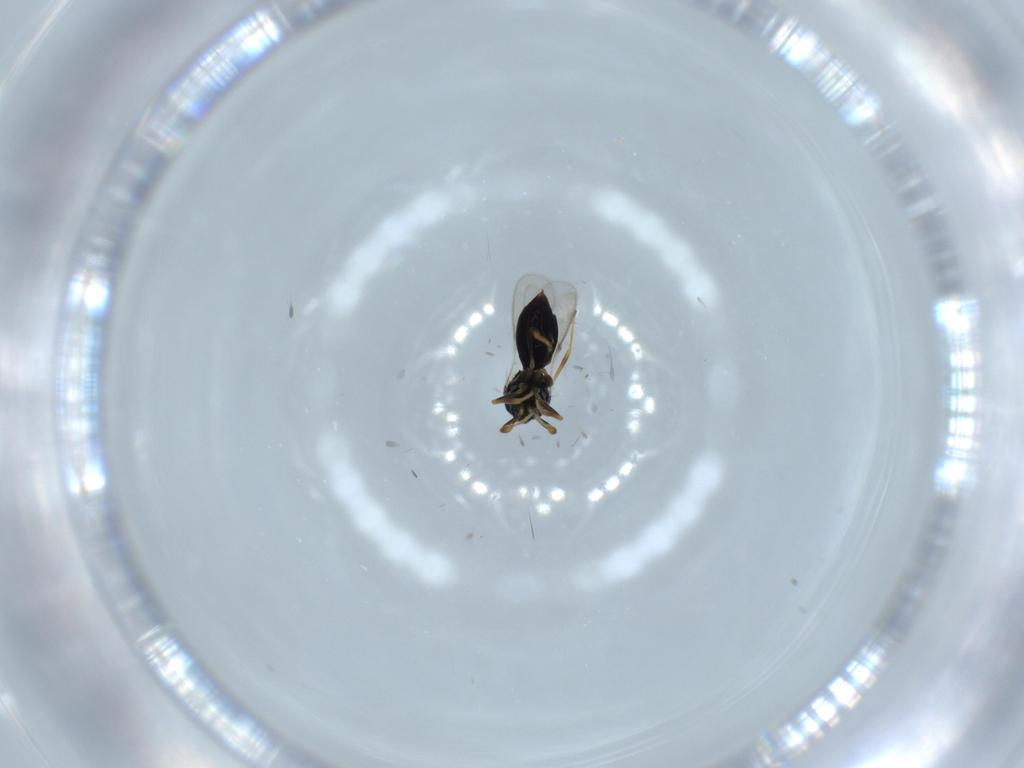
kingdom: Animalia
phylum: Arthropoda
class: Insecta
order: Hymenoptera
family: Scelionidae
